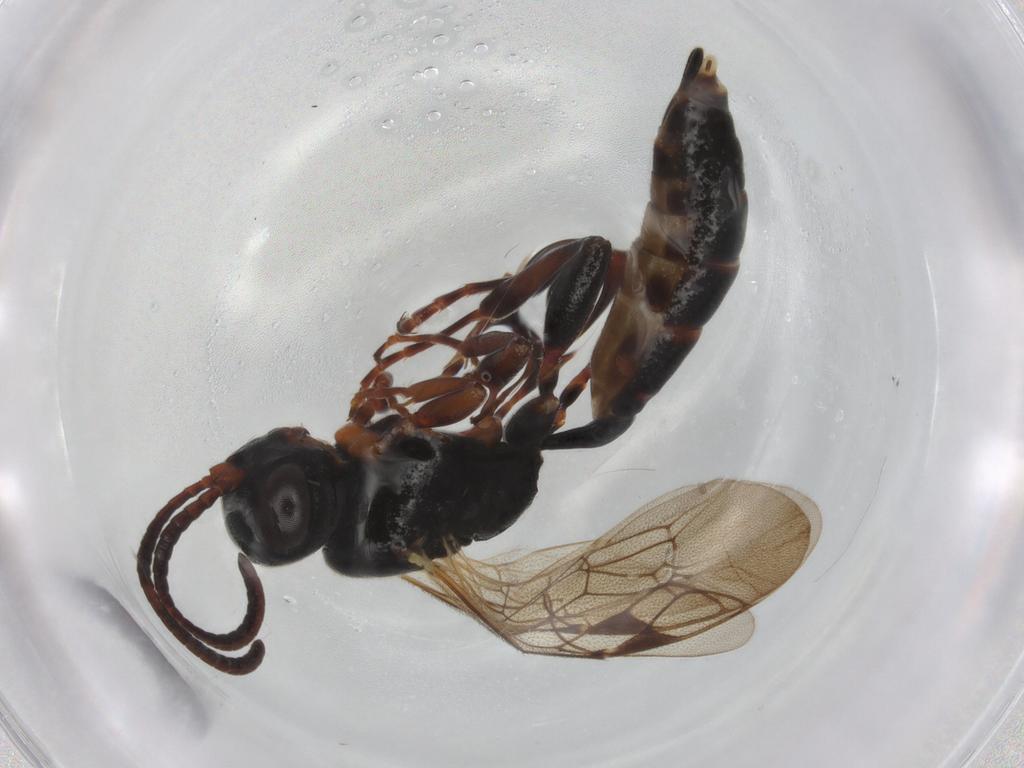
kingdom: Animalia
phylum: Arthropoda
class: Insecta
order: Hymenoptera
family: Ichneumonidae
